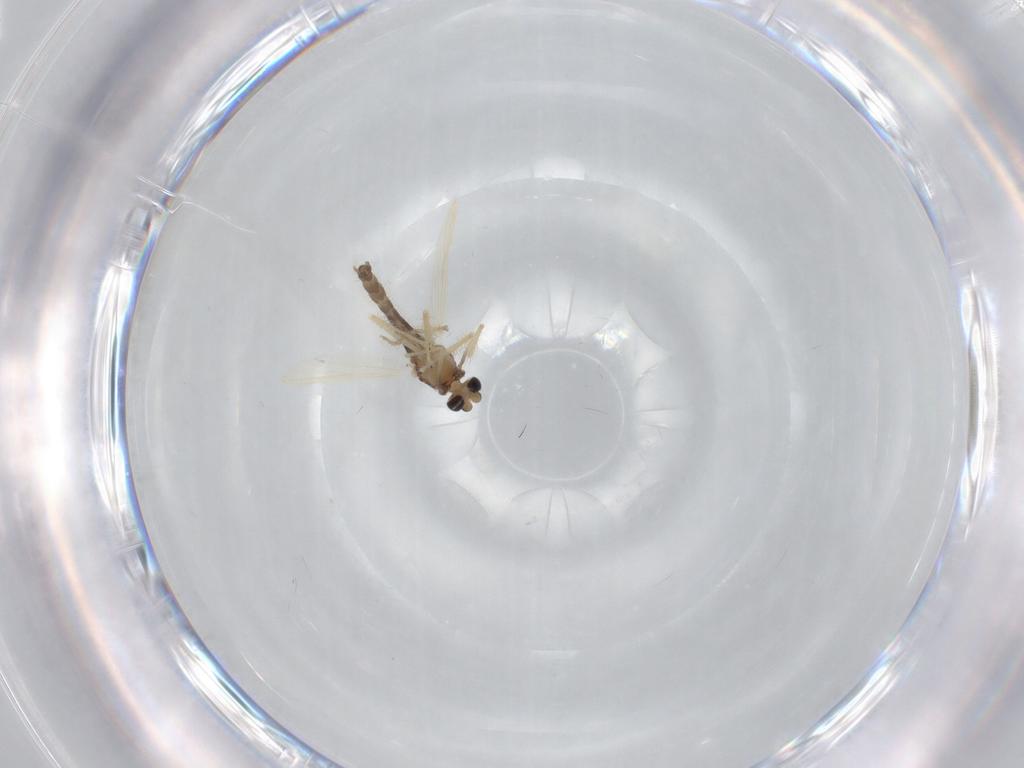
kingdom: Animalia
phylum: Arthropoda
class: Insecta
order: Diptera
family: Chironomidae
